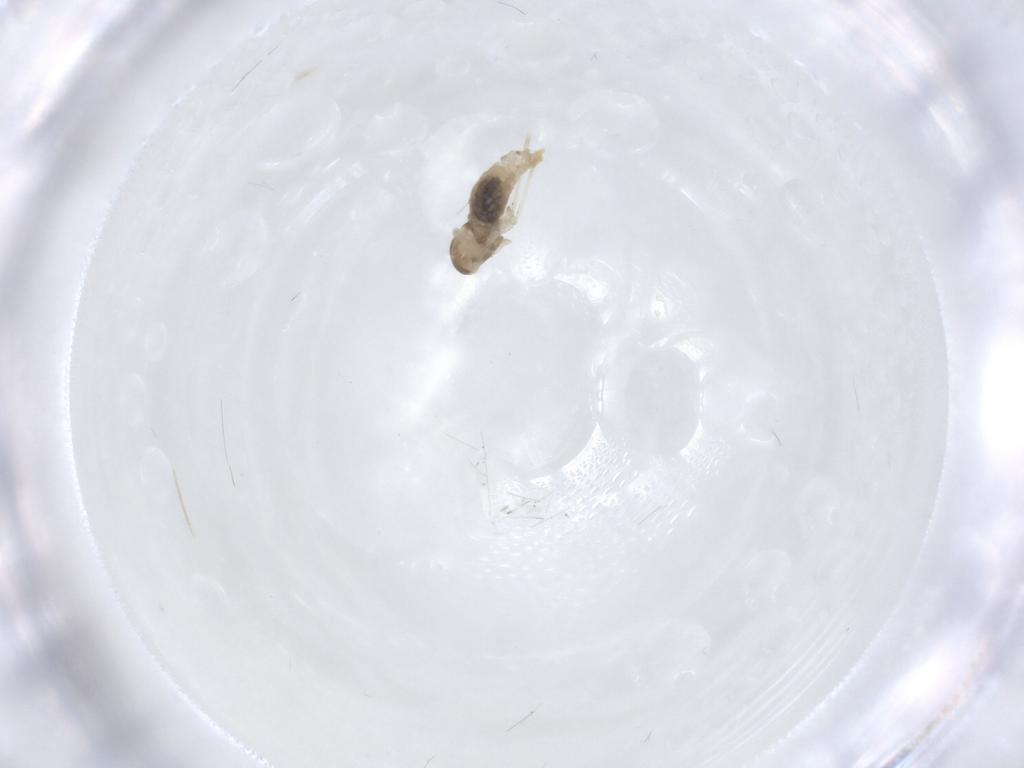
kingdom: Animalia
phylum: Arthropoda
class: Insecta
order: Diptera
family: Cecidomyiidae
